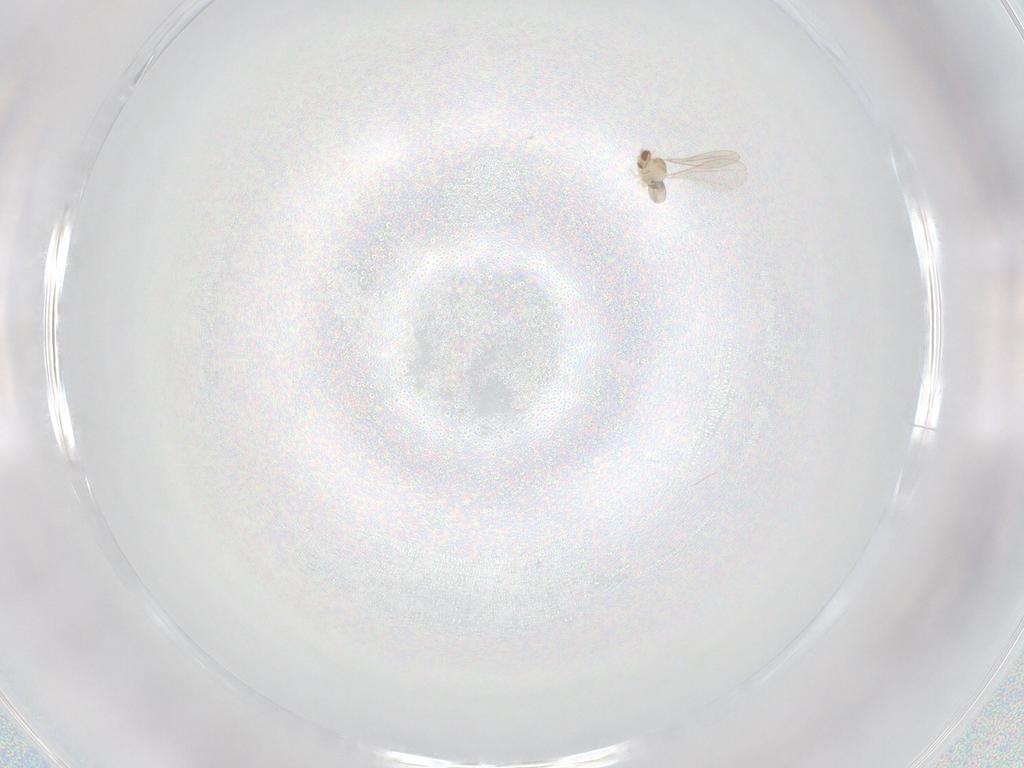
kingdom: Animalia
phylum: Arthropoda
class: Insecta
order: Diptera
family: Cecidomyiidae
